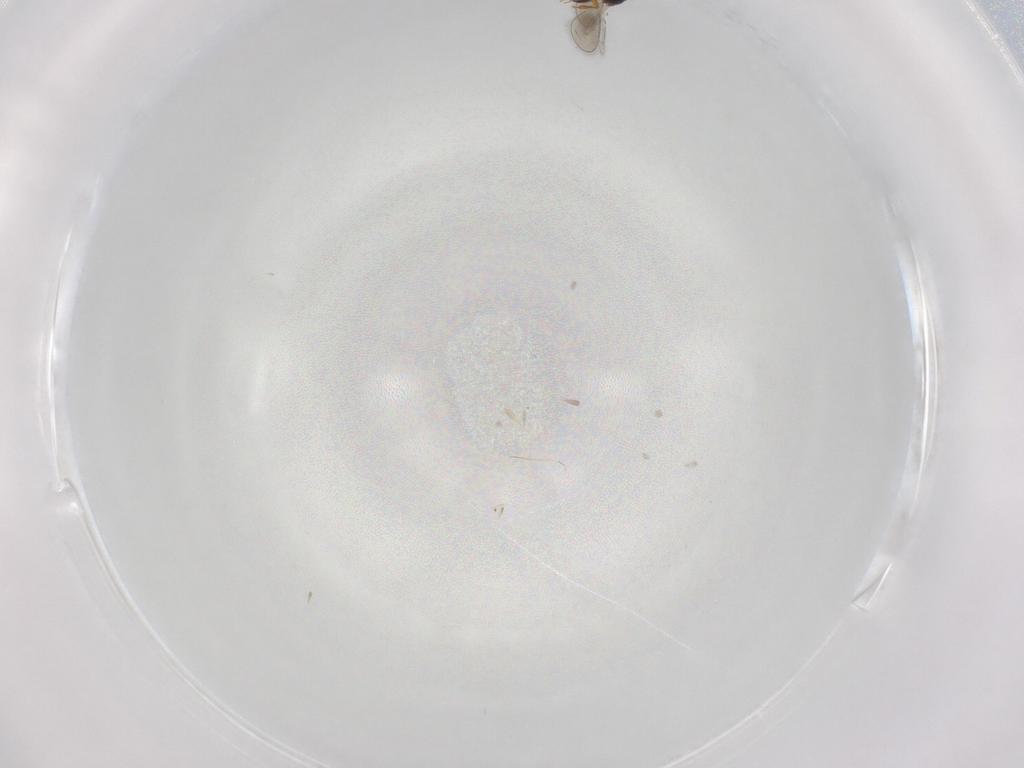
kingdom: Animalia
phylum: Arthropoda
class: Insecta
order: Hymenoptera
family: Platygastridae
